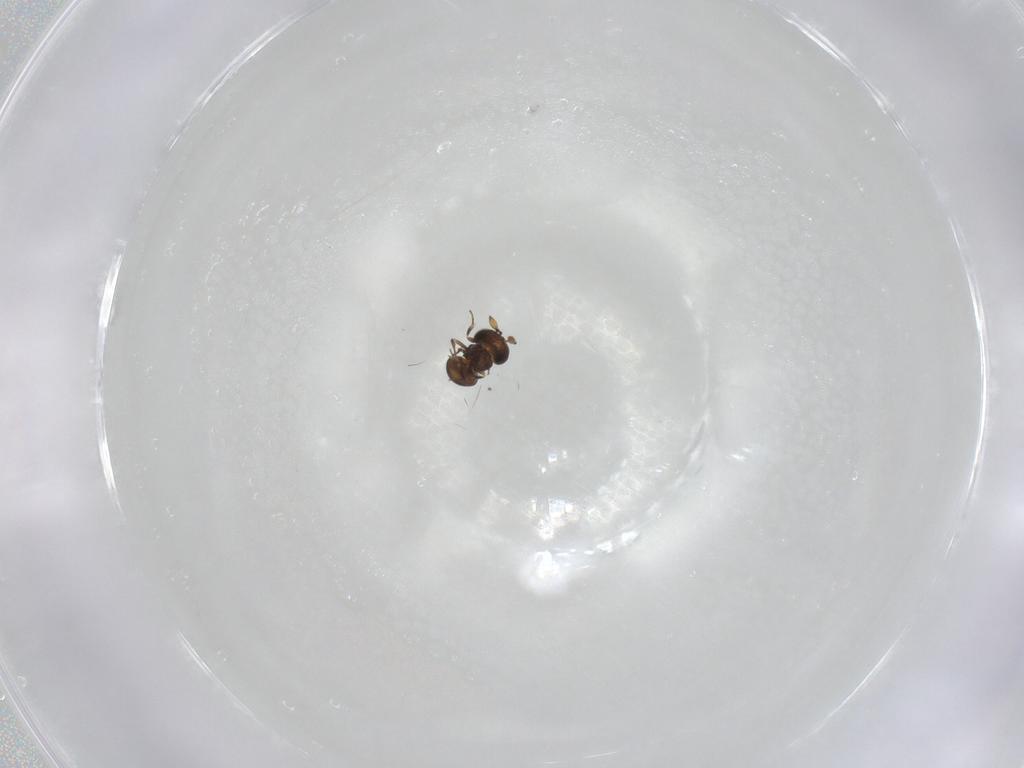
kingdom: Animalia
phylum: Arthropoda
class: Insecta
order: Hymenoptera
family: Scelionidae
